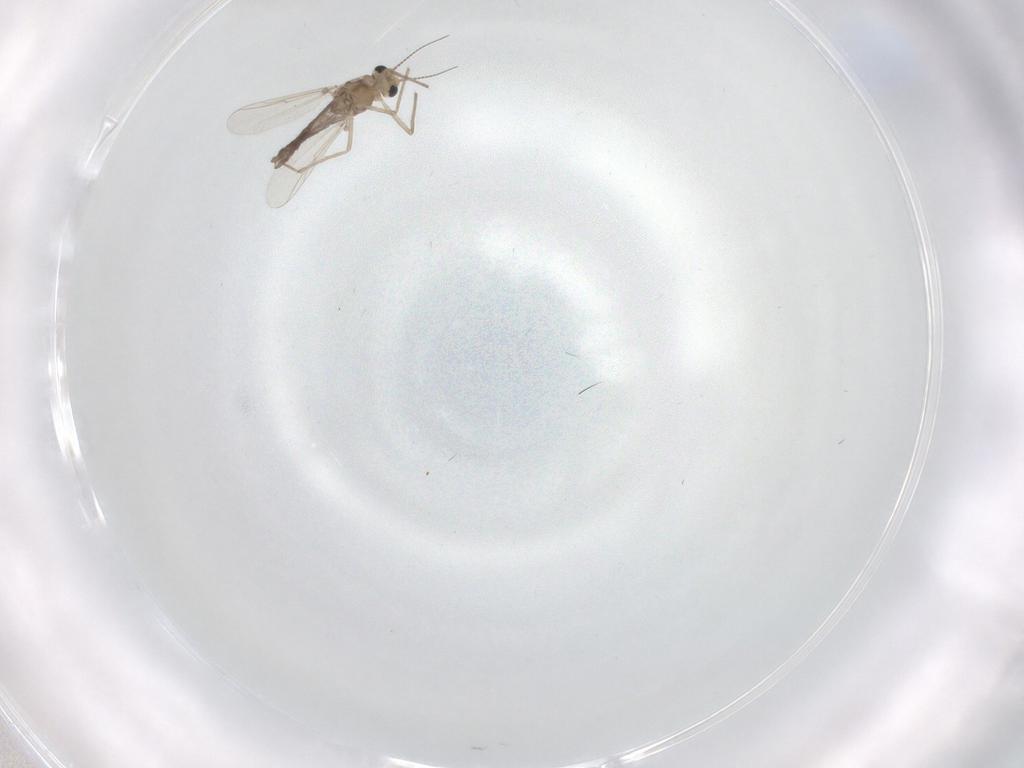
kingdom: Animalia
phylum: Arthropoda
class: Insecta
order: Diptera
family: Chironomidae
